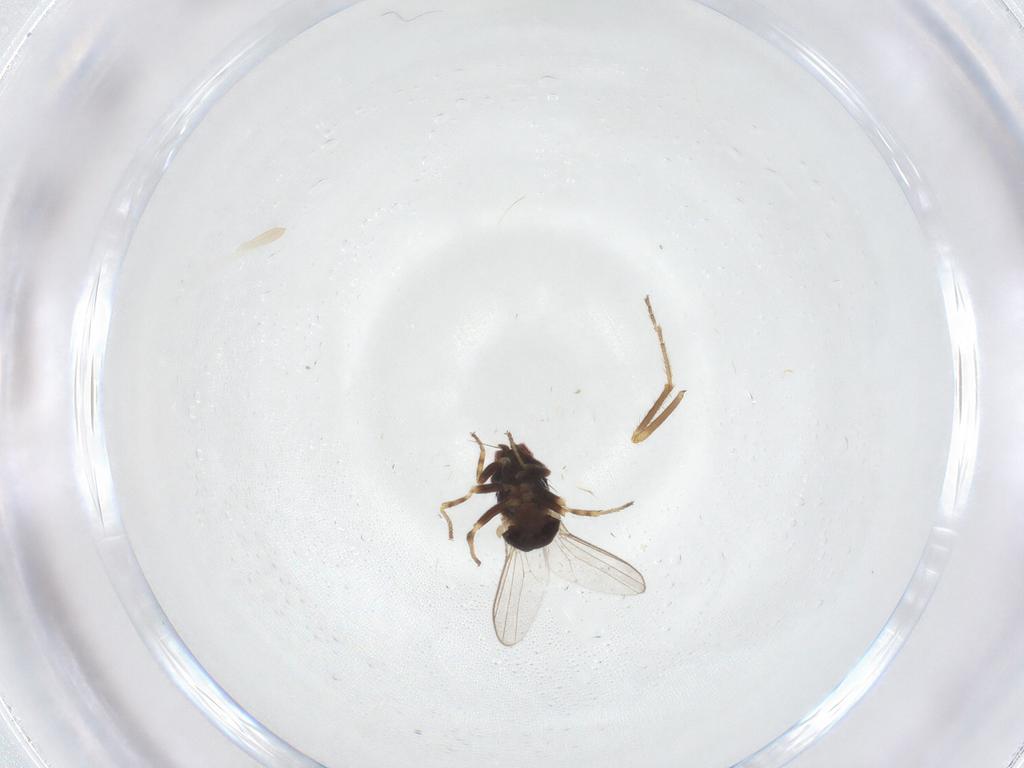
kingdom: Animalia
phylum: Arthropoda
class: Insecta
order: Diptera
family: Chloropidae
